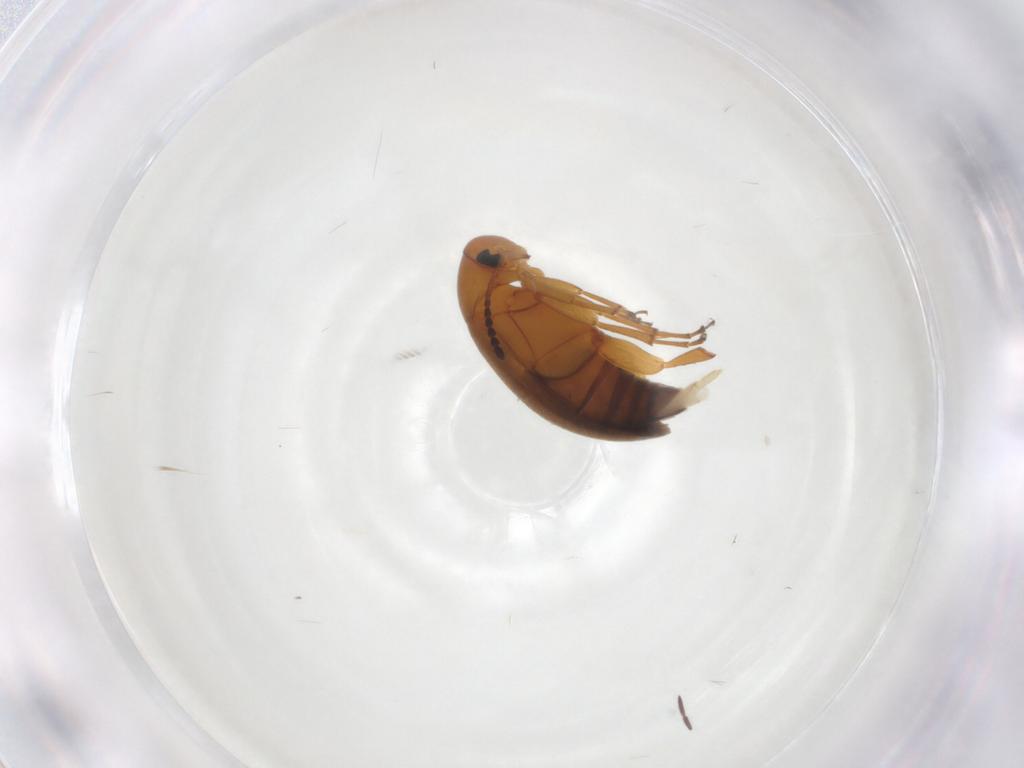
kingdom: Animalia
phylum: Arthropoda
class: Insecta
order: Coleoptera
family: Scraptiidae
